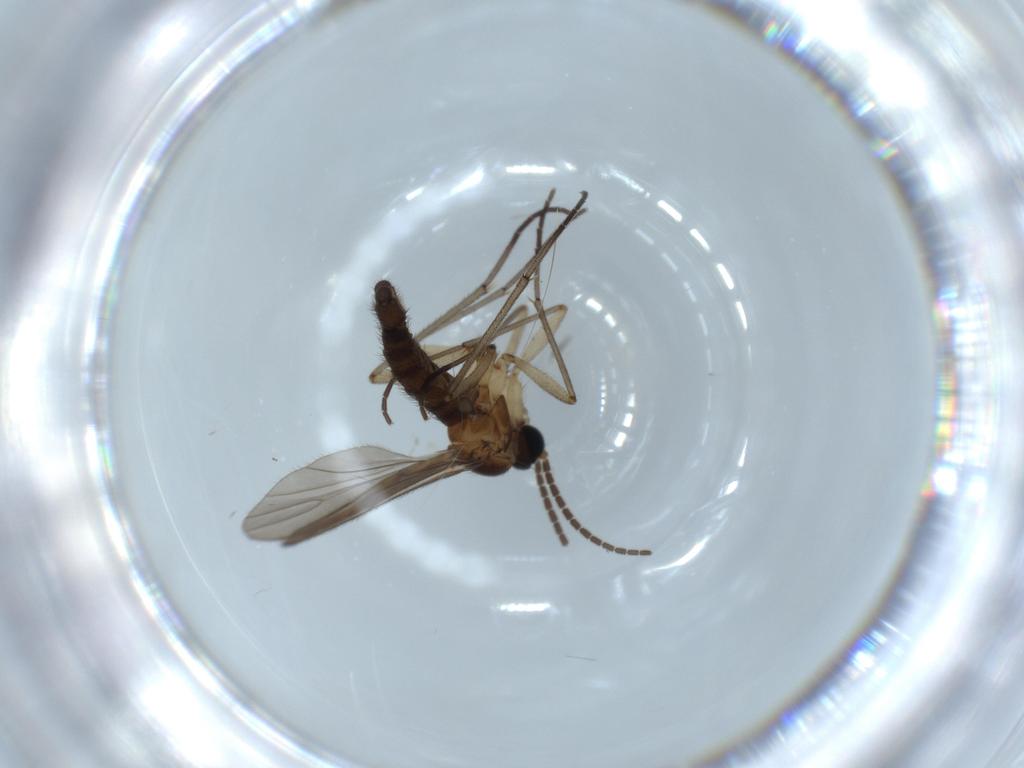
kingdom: Animalia
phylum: Arthropoda
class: Insecta
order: Diptera
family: Sciaridae
